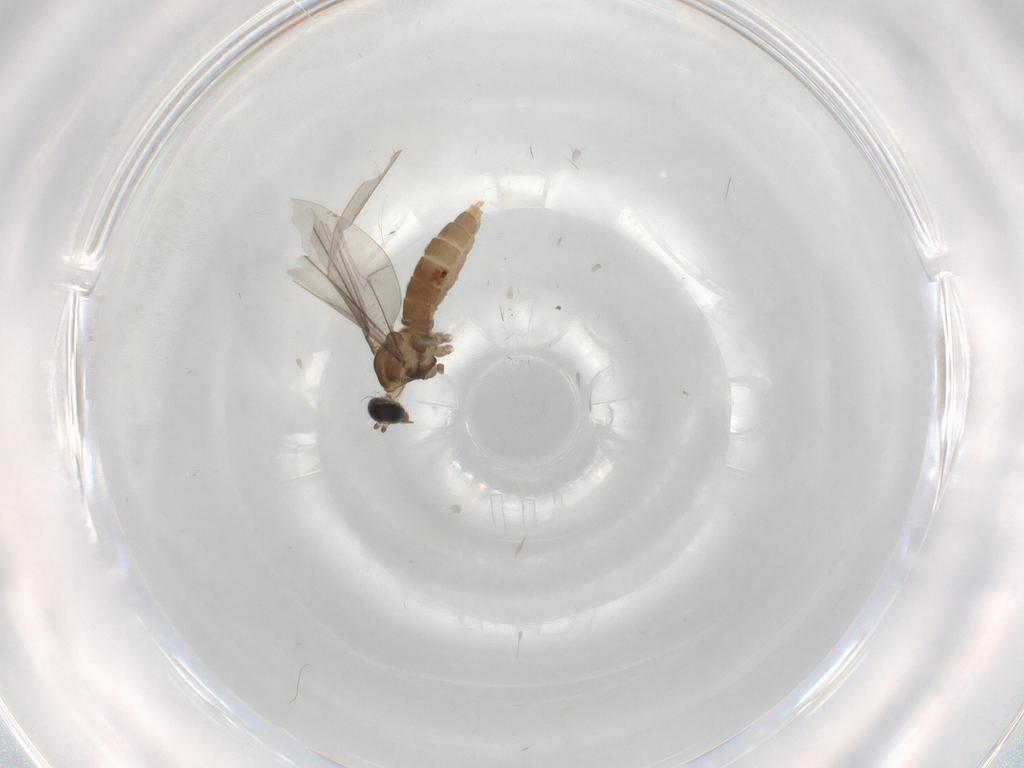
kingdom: Animalia
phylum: Arthropoda
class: Insecta
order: Diptera
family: Cecidomyiidae
